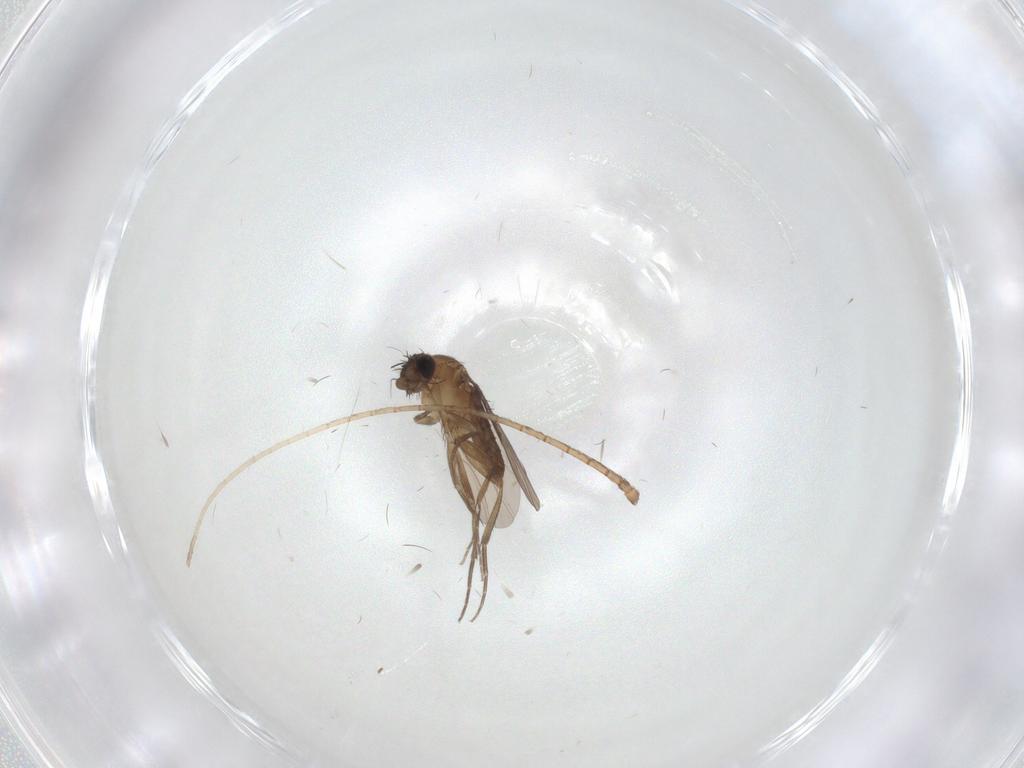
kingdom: Animalia
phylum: Arthropoda
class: Insecta
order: Diptera
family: Phoridae
